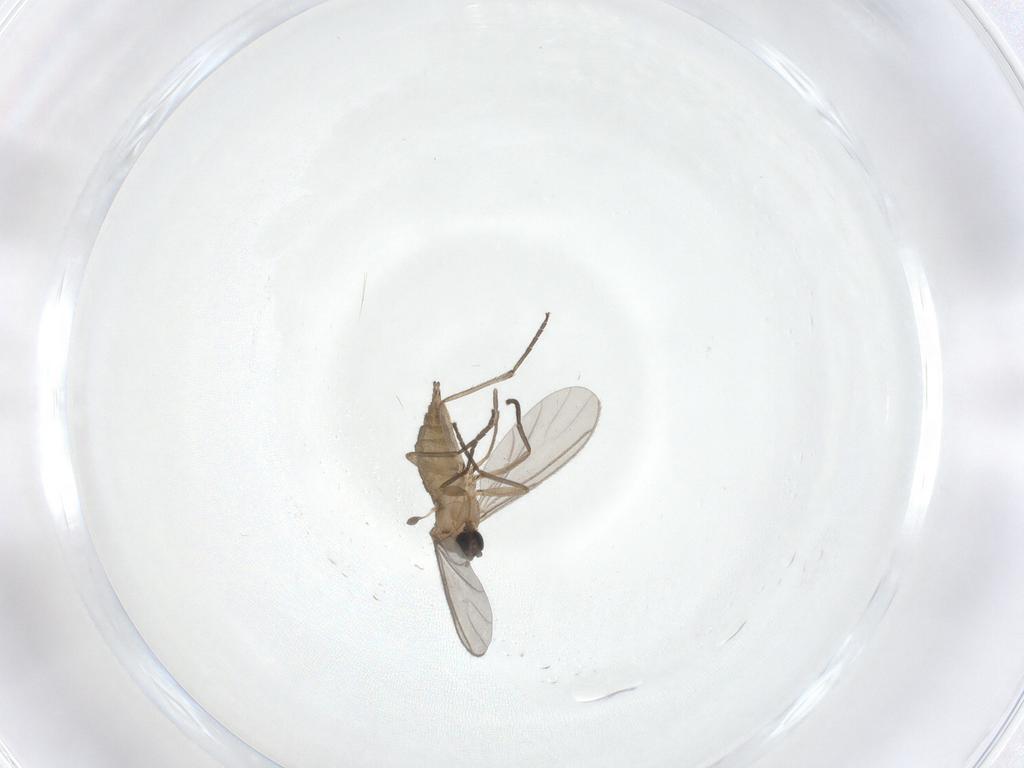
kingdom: Animalia
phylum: Arthropoda
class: Insecta
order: Diptera
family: Sciaridae
